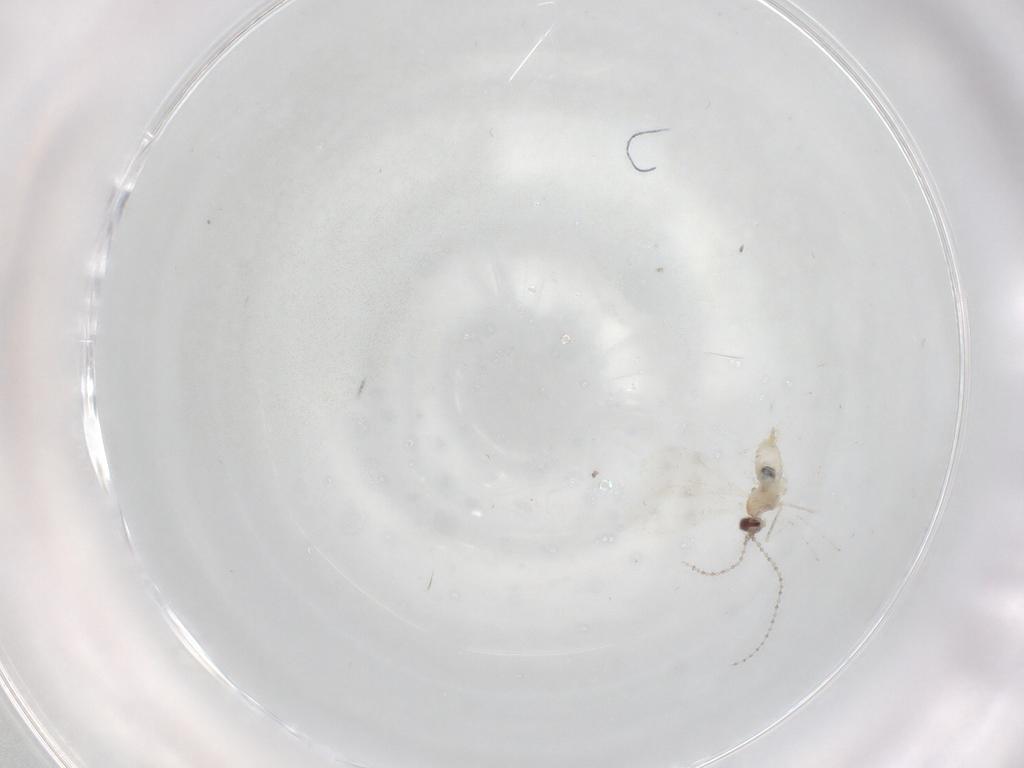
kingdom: Animalia
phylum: Arthropoda
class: Insecta
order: Diptera
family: Cecidomyiidae
